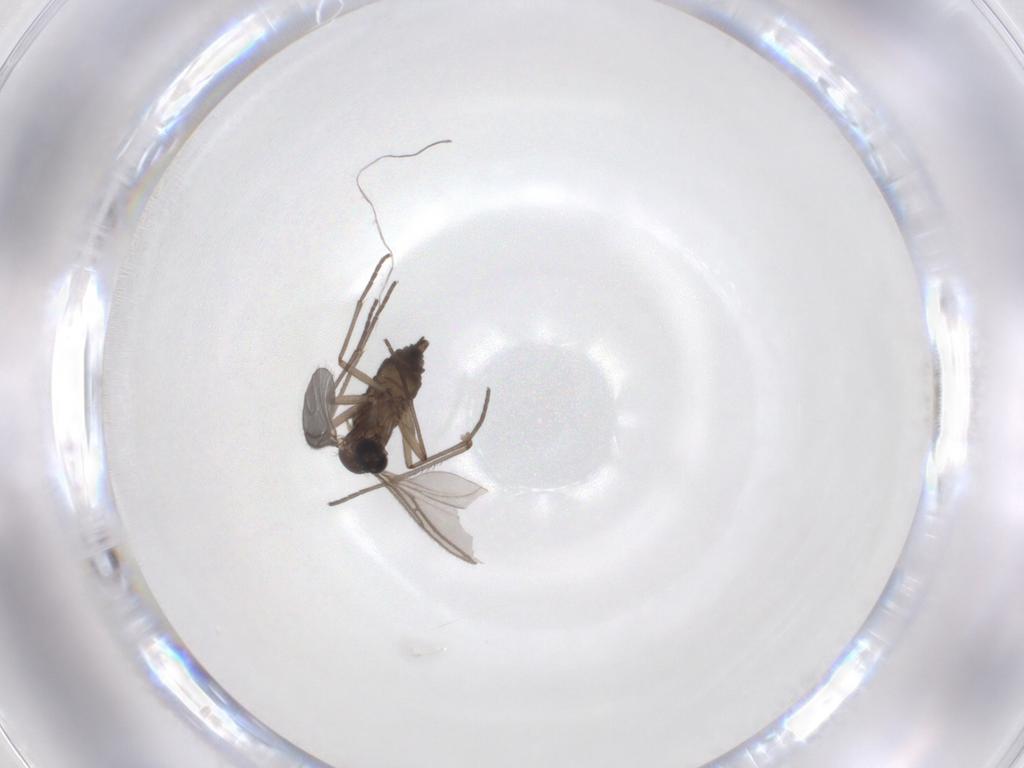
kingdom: Animalia
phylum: Arthropoda
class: Insecta
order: Diptera
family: Sciaridae
